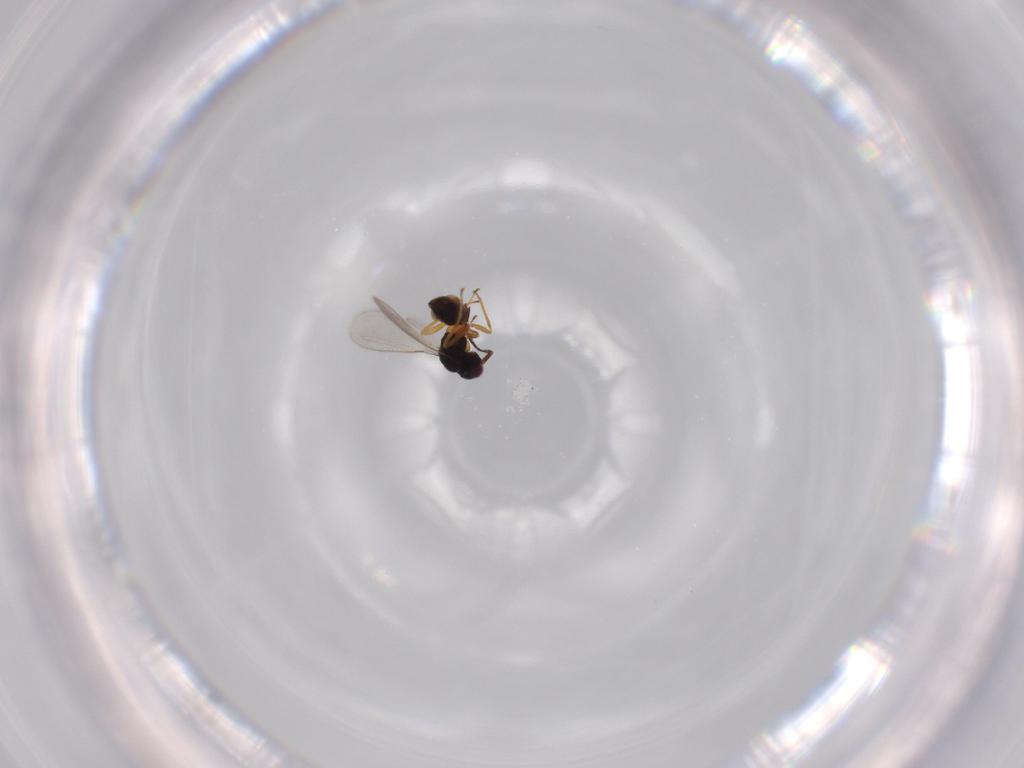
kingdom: Animalia
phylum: Arthropoda
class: Insecta
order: Hymenoptera
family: Mymaridae
